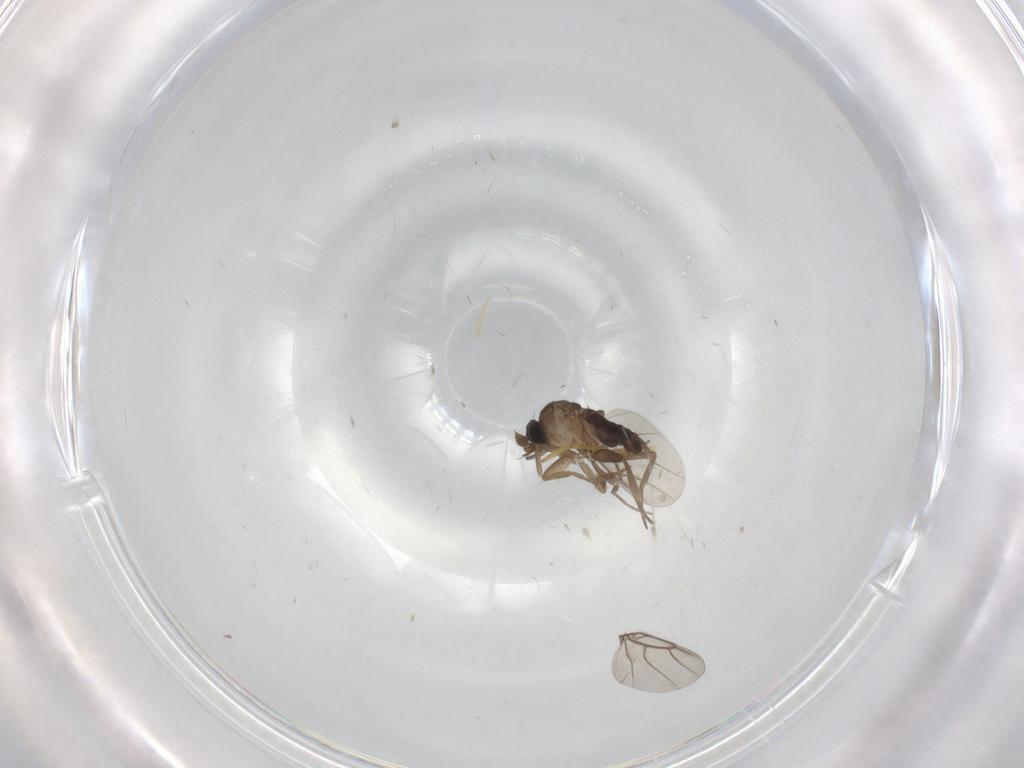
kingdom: Animalia
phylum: Arthropoda
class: Insecta
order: Diptera
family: Phoridae
